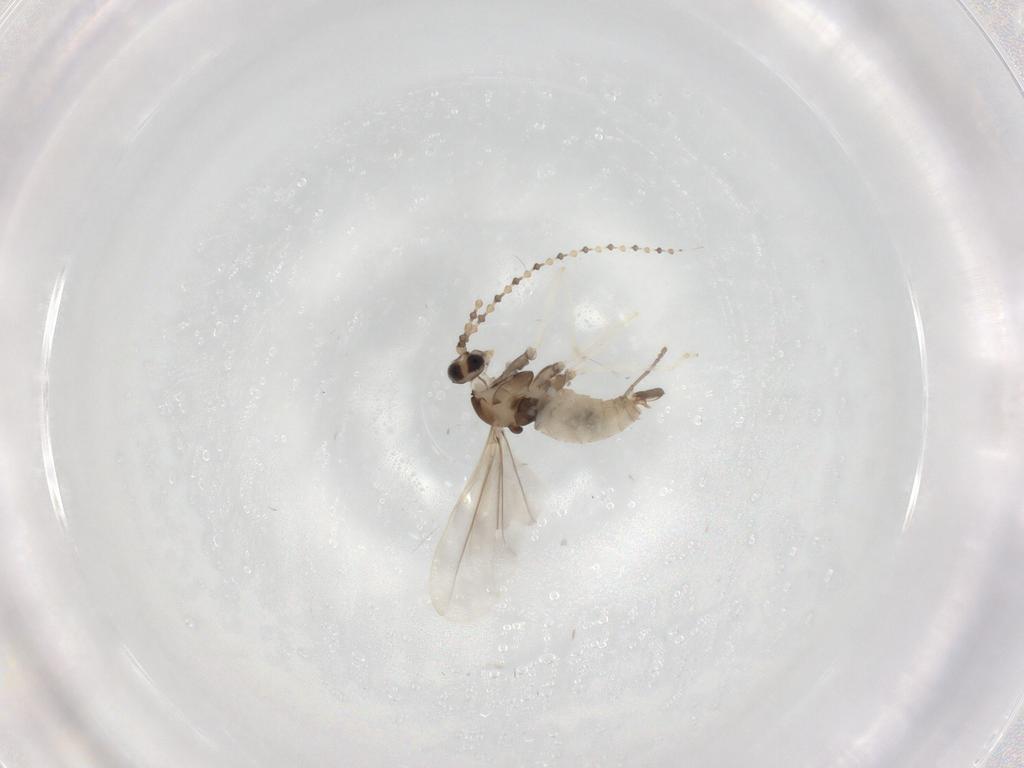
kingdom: Animalia
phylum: Arthropoda
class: Insecta
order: Diptera
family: Cecidomyiidae
